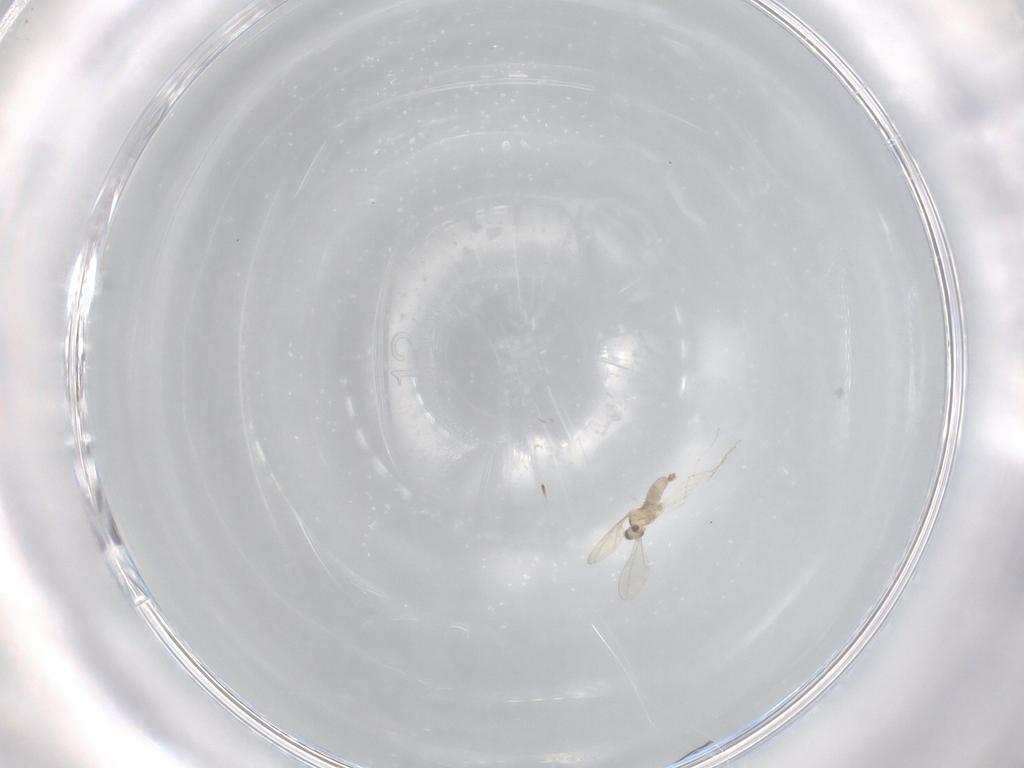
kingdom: Animalia
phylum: Arthropoda
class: Insecta
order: Diptera
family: Cecidomyiidae
